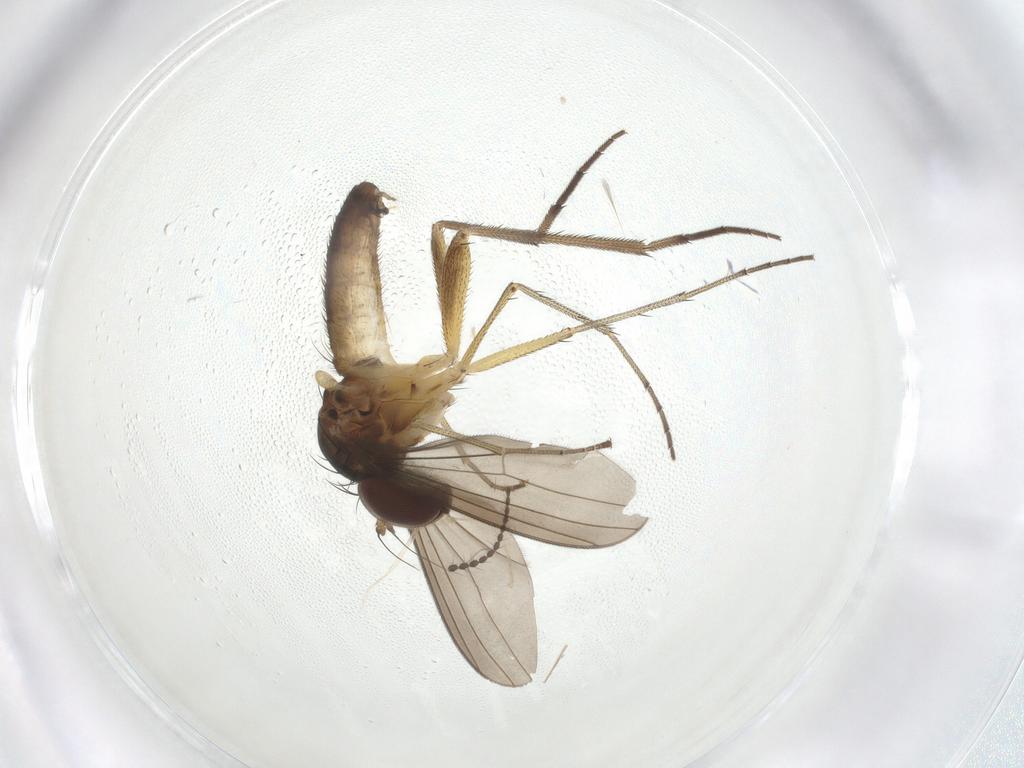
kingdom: Animalia
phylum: Arthropoda
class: Insecta
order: Diptera
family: Dolichopodidae
